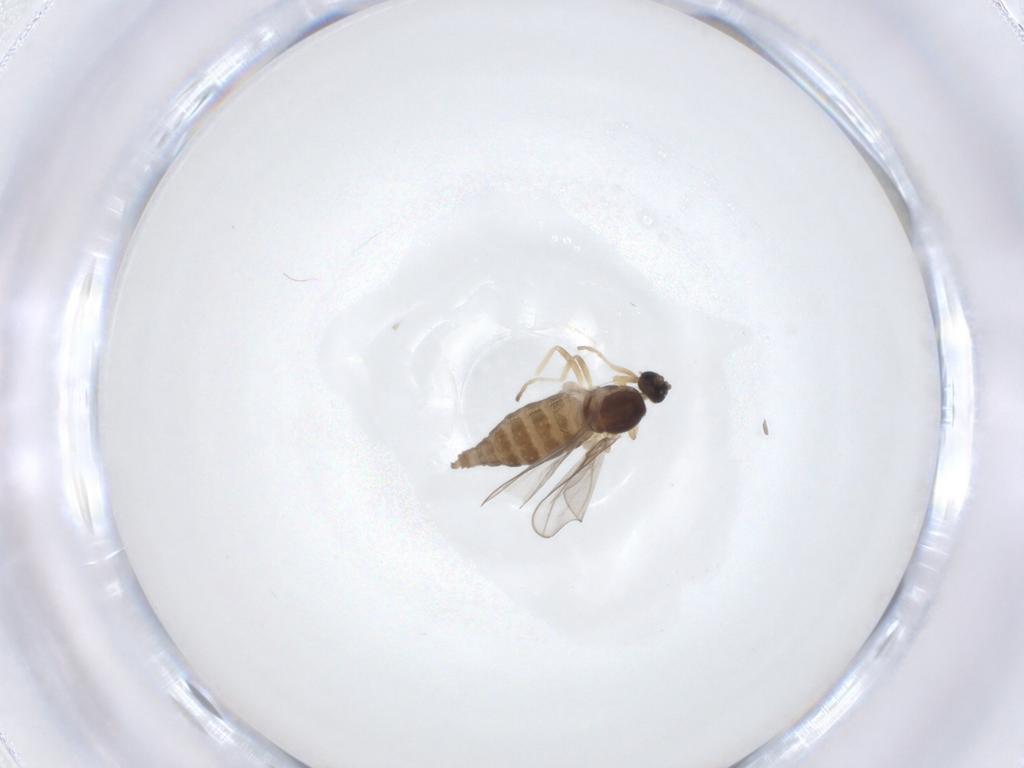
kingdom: Animalia
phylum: Arthropoda
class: Insecta
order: Diptera
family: Cecidomyiidae
